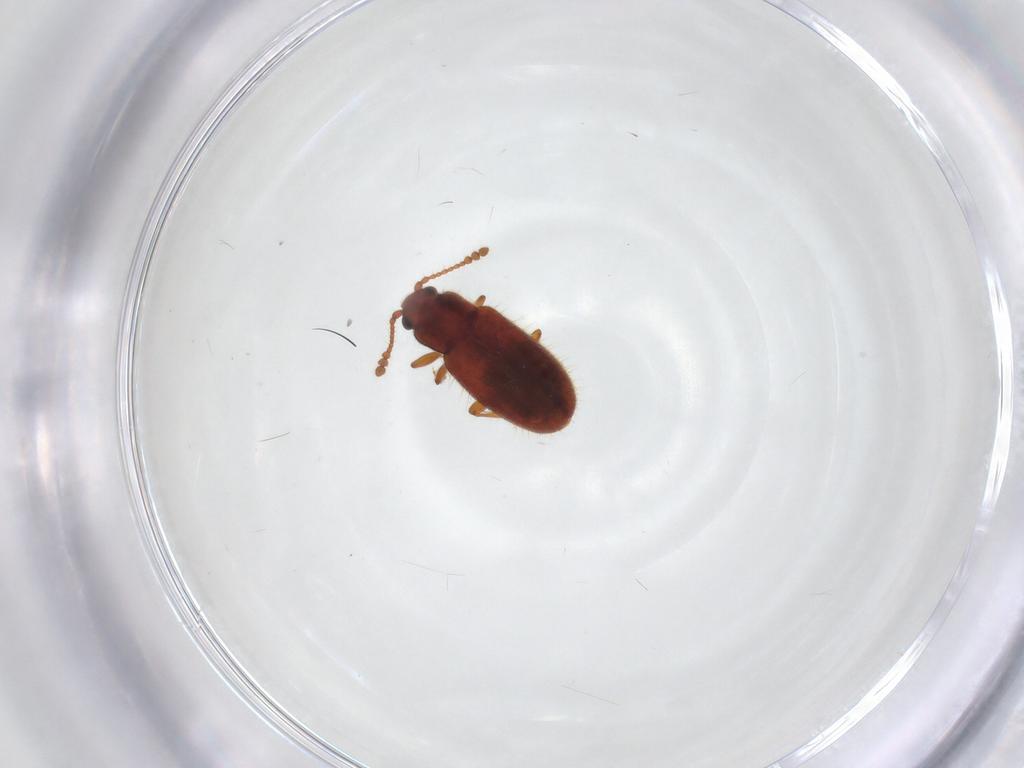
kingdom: Animalia
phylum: Arthropoda
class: Insecta
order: Coleoptera
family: Cryptophagidae
